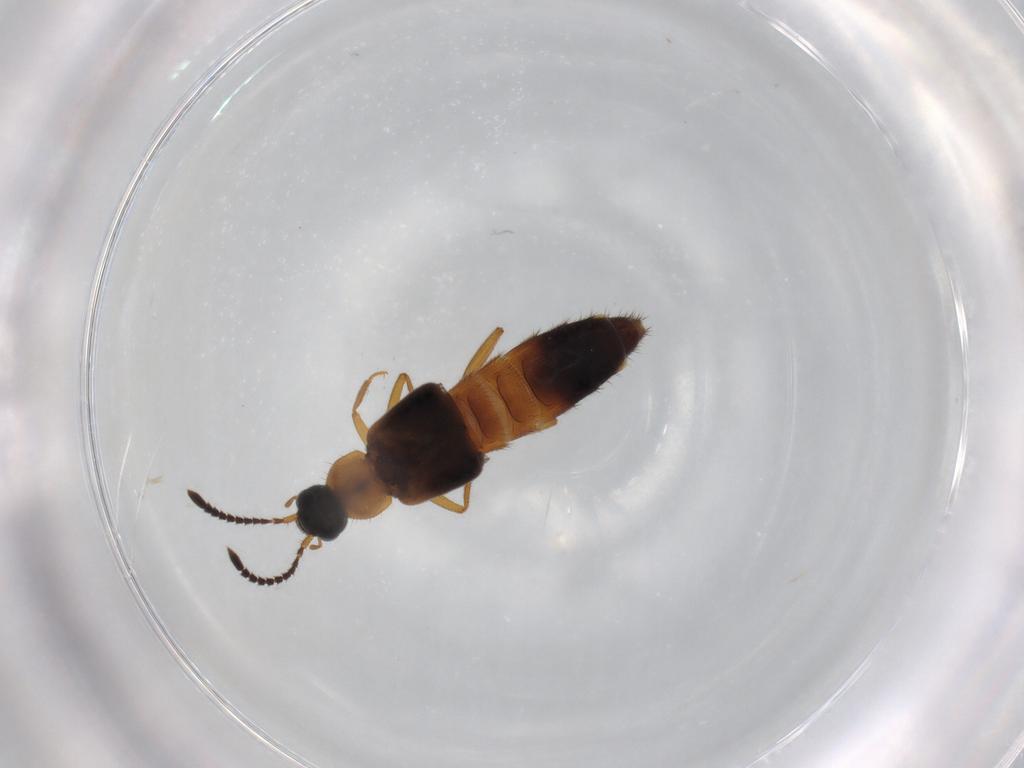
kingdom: Animalia
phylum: Arthropoda
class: Insecta
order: Coleoptera
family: Staphylinidae
